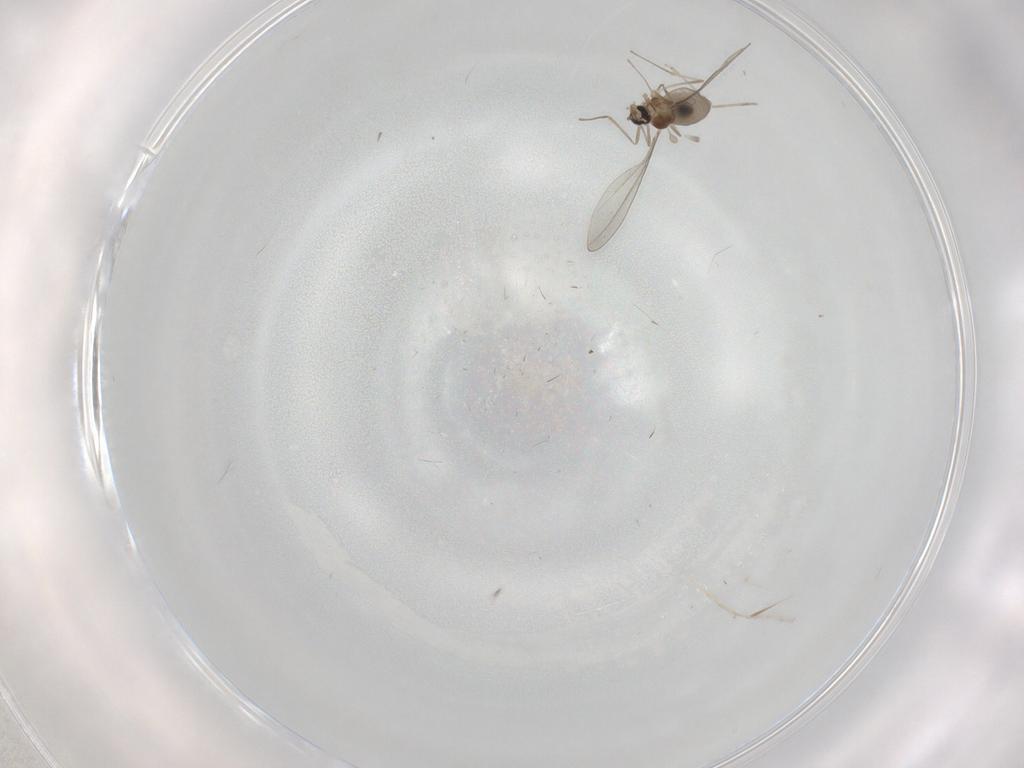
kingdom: Animalia
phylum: Arthropoda
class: Insecta
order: Diptera
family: Cecidomyiidae
